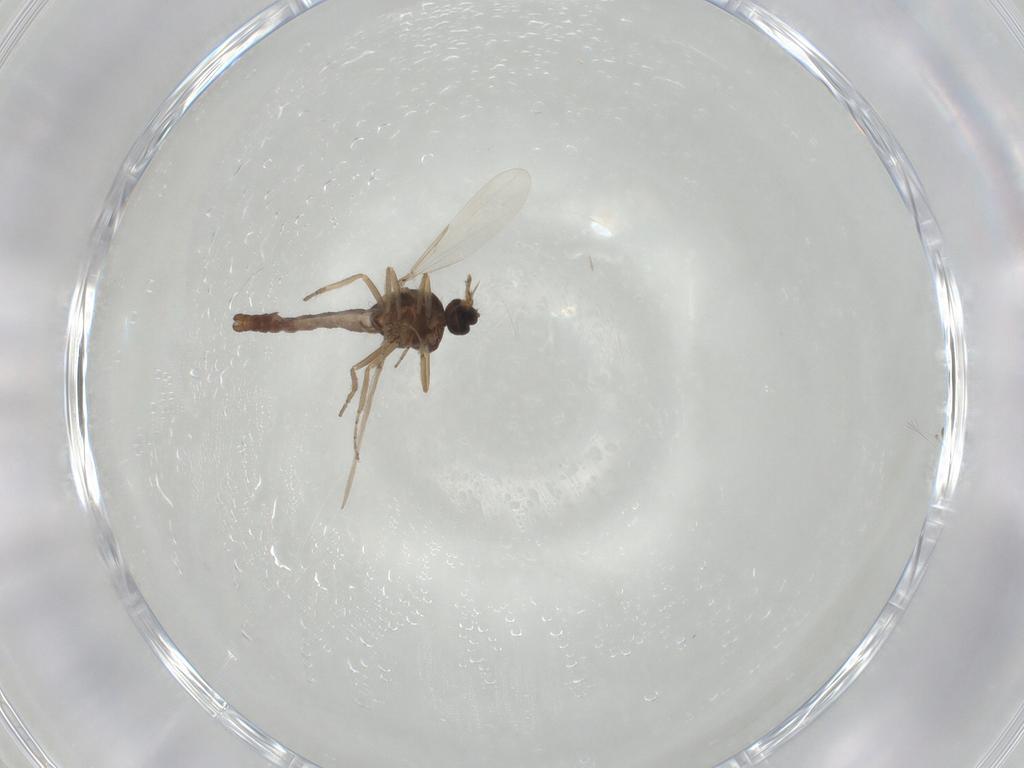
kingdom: Animalia
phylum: Arthropoda
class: Insecta
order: Diptera
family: Ceratopogonidae
